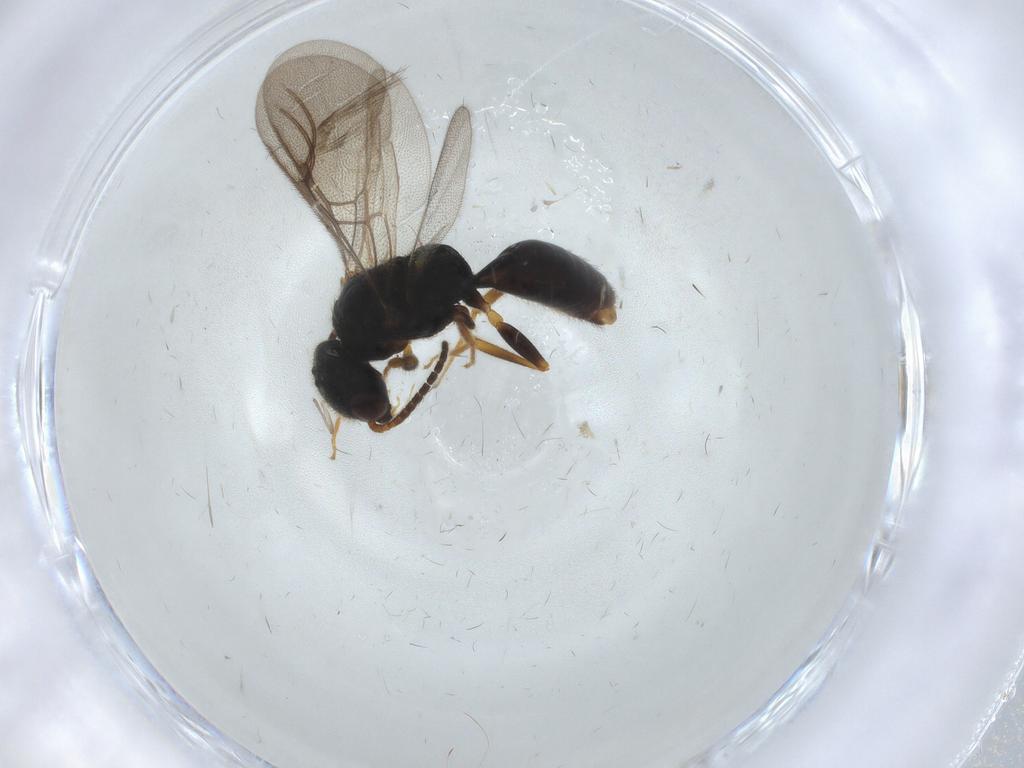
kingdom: Animalia
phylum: Arthropoda
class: Insecta
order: Hymenoptera
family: Bethylidae
